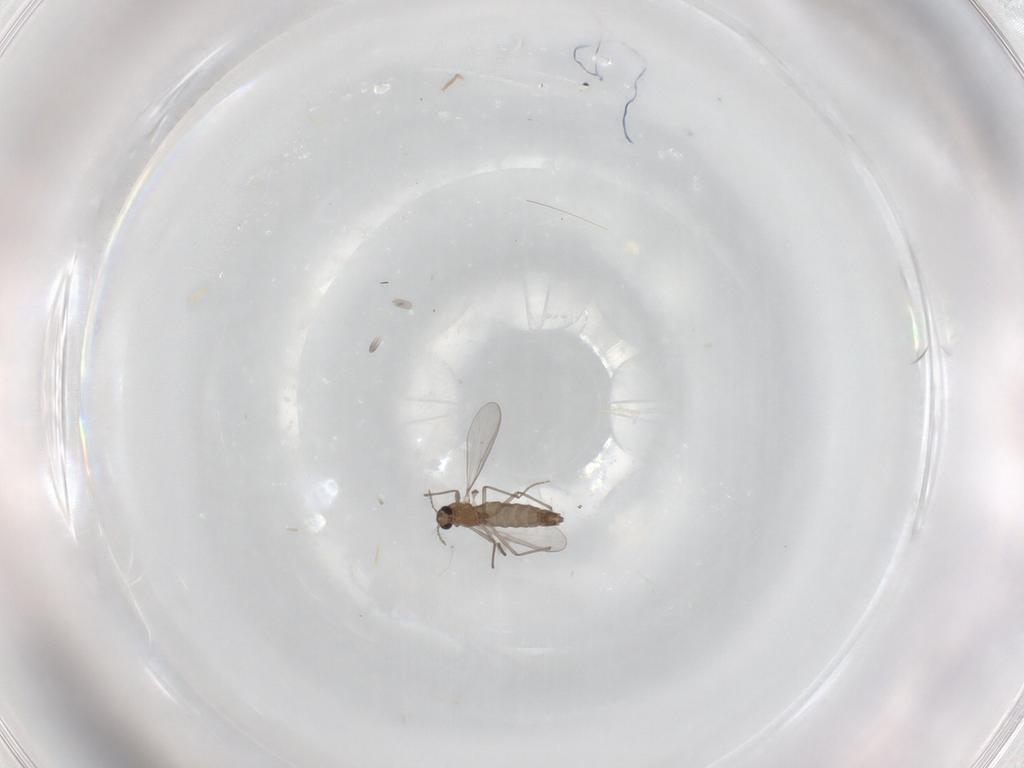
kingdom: Animalia
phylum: Arthropoda
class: Insecta
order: Diptera
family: Chironomidae
